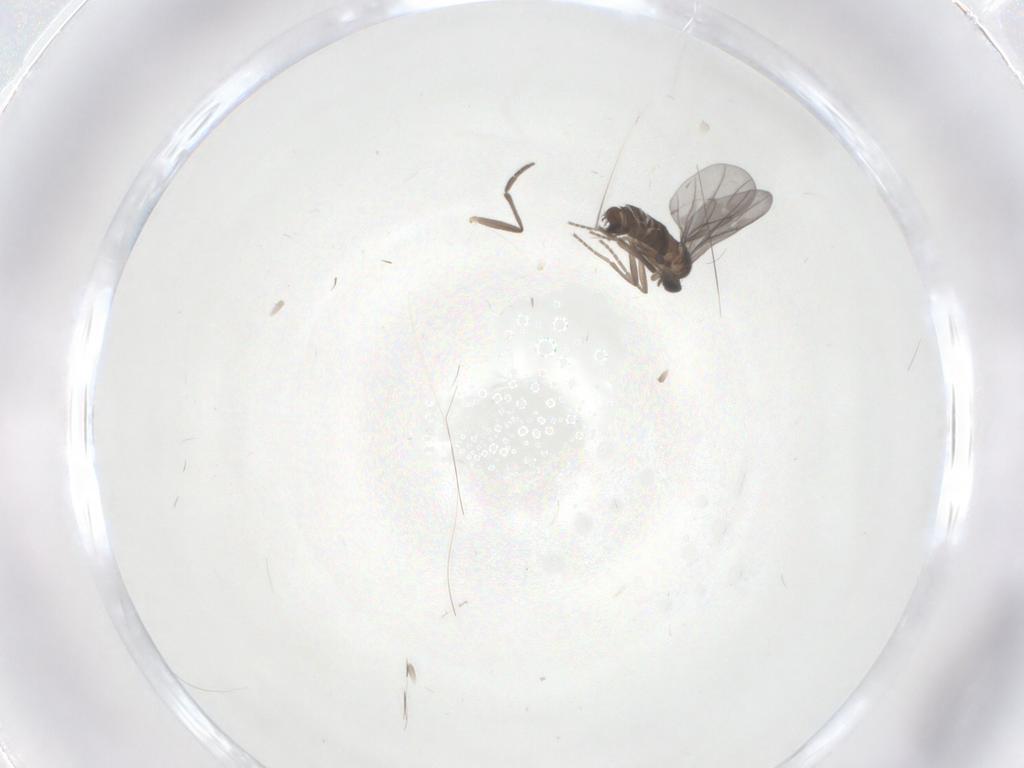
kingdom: Animalia
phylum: Arthropoda
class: Insecta
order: Diptera
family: Phoridae
